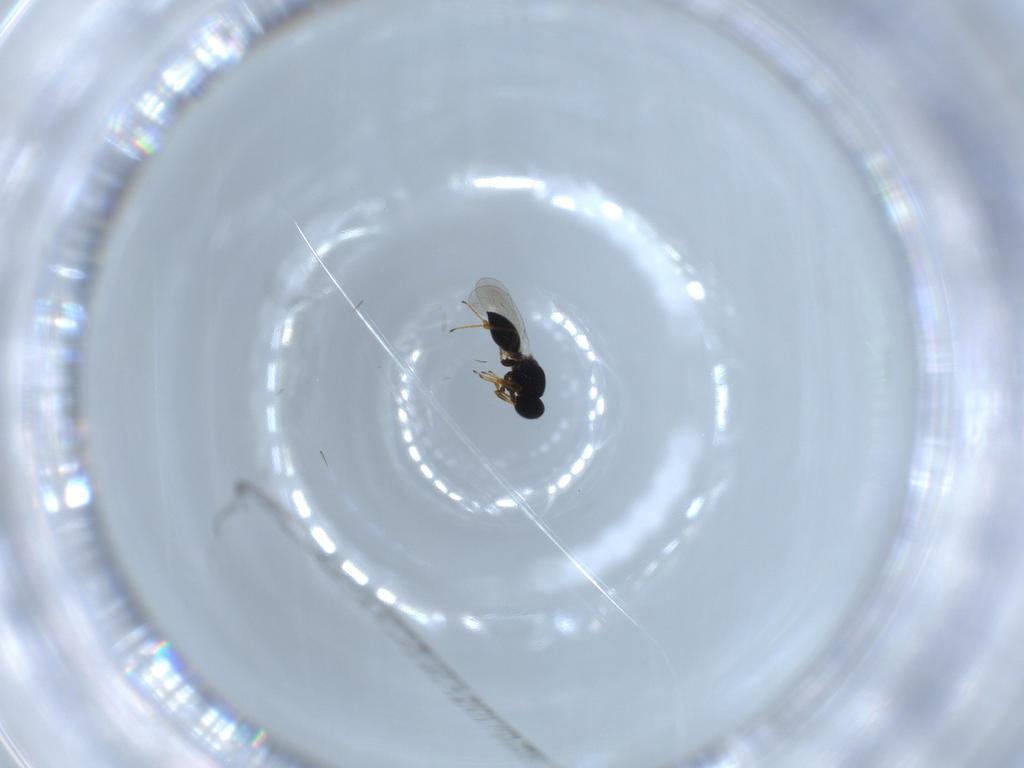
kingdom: Animalia
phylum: Arthropoda
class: Insecta
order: Hymenoptera
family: Platygastridae
